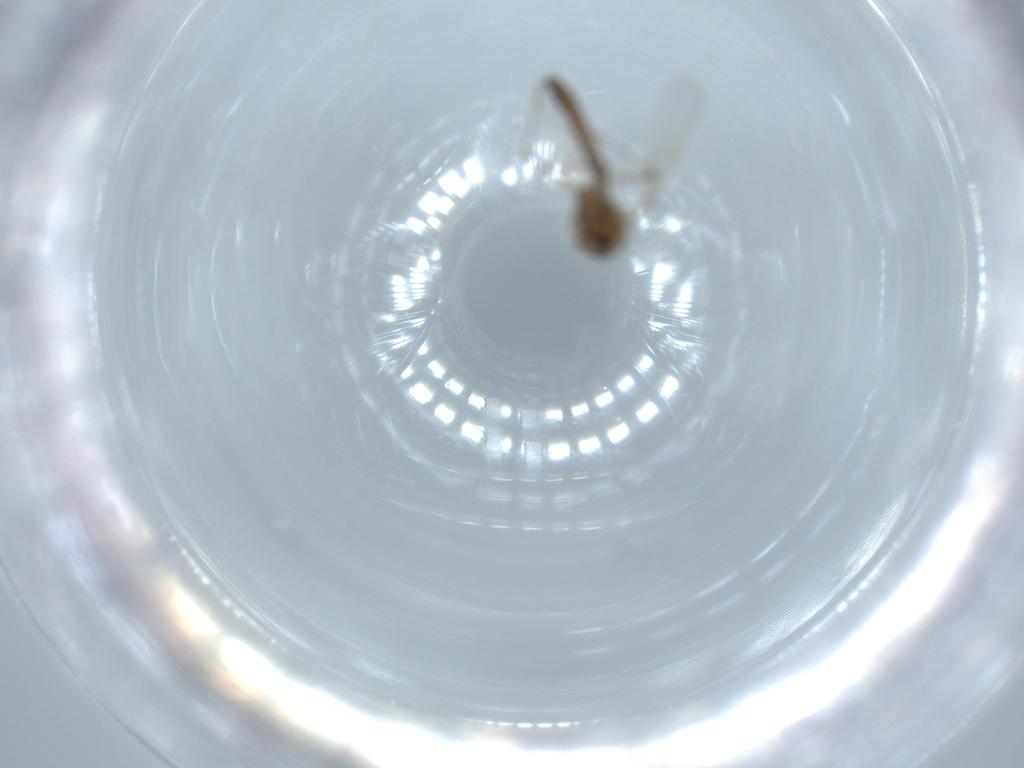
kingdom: Animalia
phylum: Arthropoda
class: Insecta
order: Diptera
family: Chironomidae
